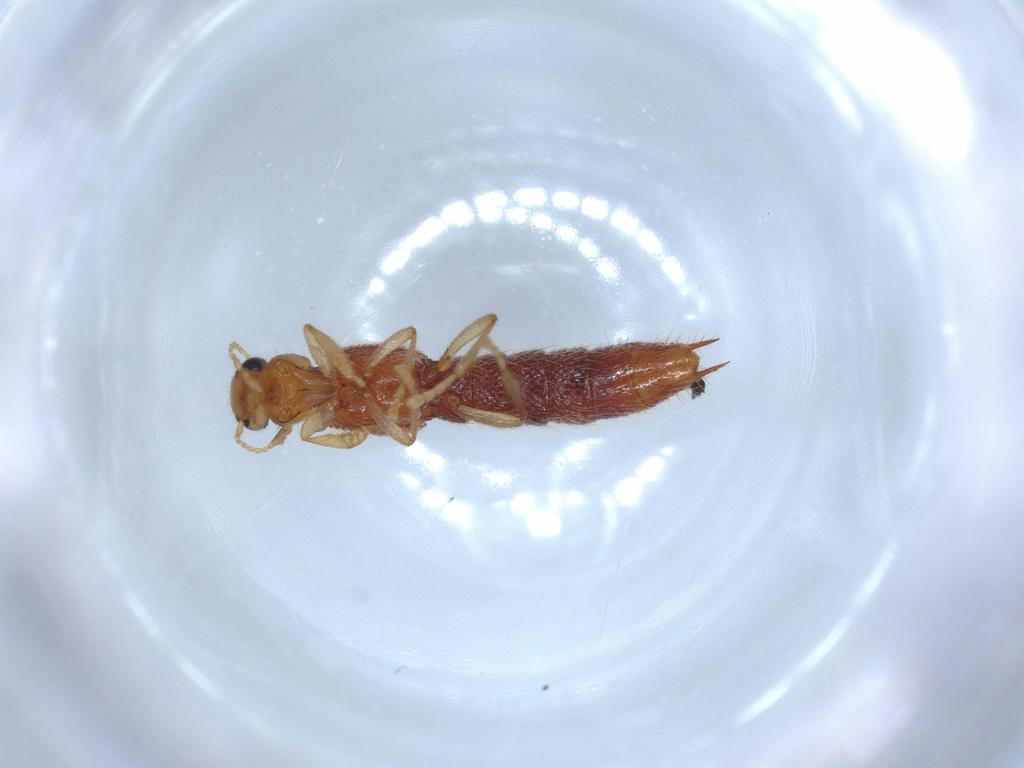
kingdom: Animalia
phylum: Arthropoda
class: Insecta
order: Coleoptera
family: Staphylinidae
